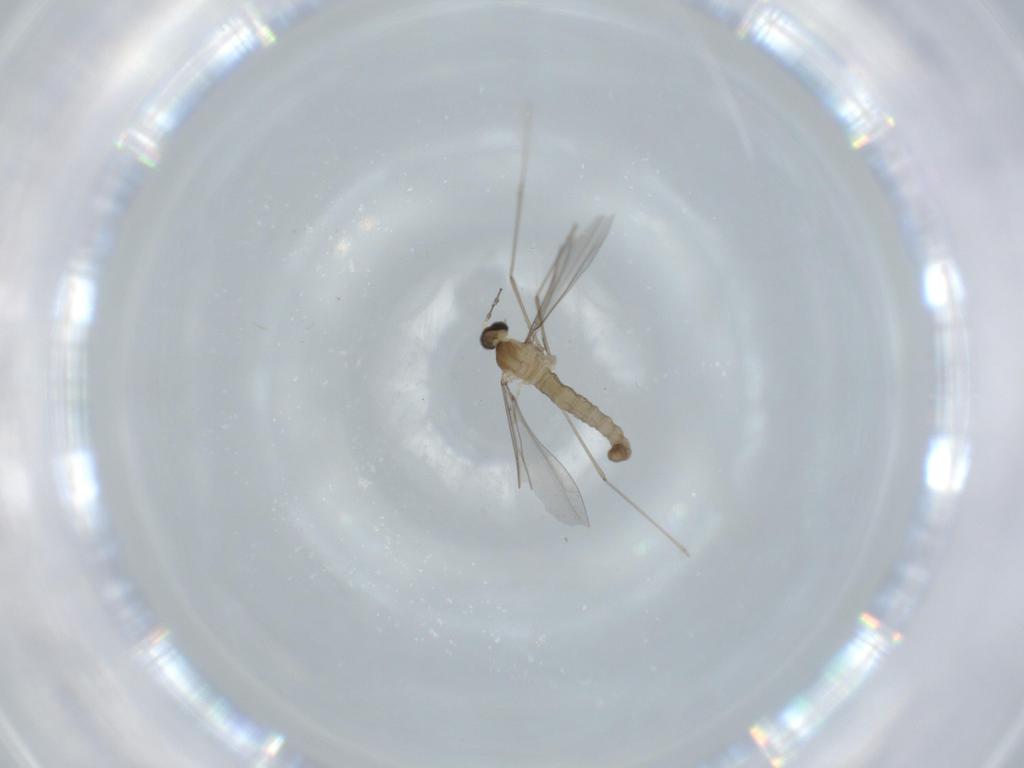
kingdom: Animalia
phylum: Arthropoda
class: Insecta
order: Diptera
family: Cecidomyiidae
